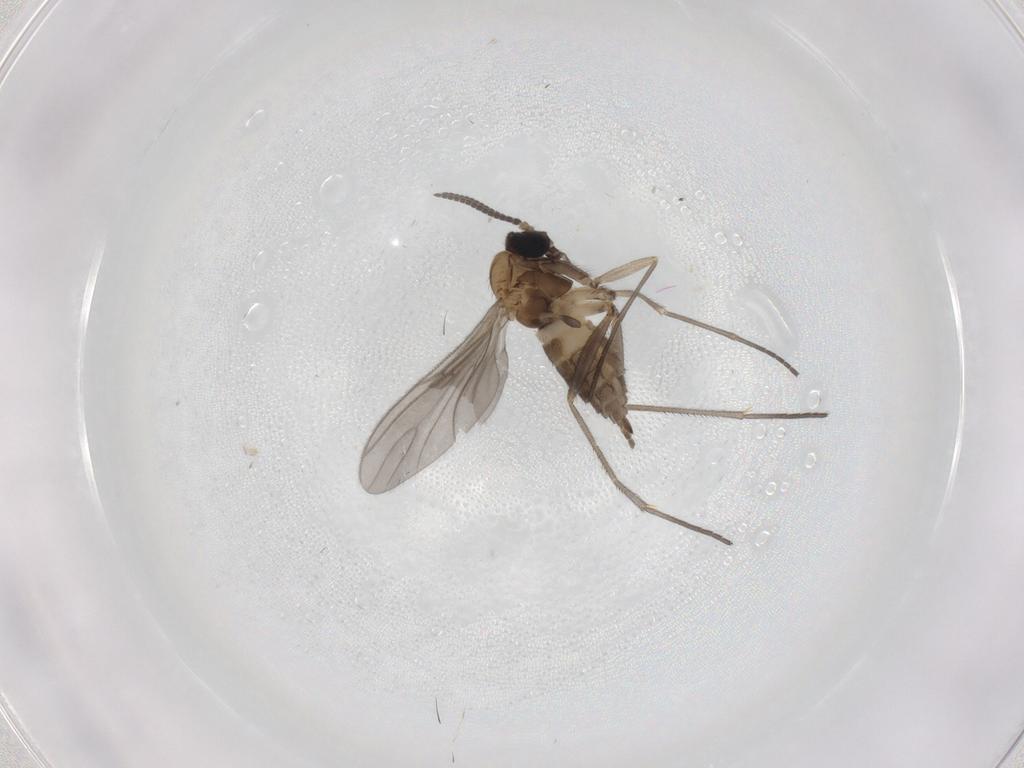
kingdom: Animalia
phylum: Arthropoda
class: Insecta
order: Diptera
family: Sciaridae
